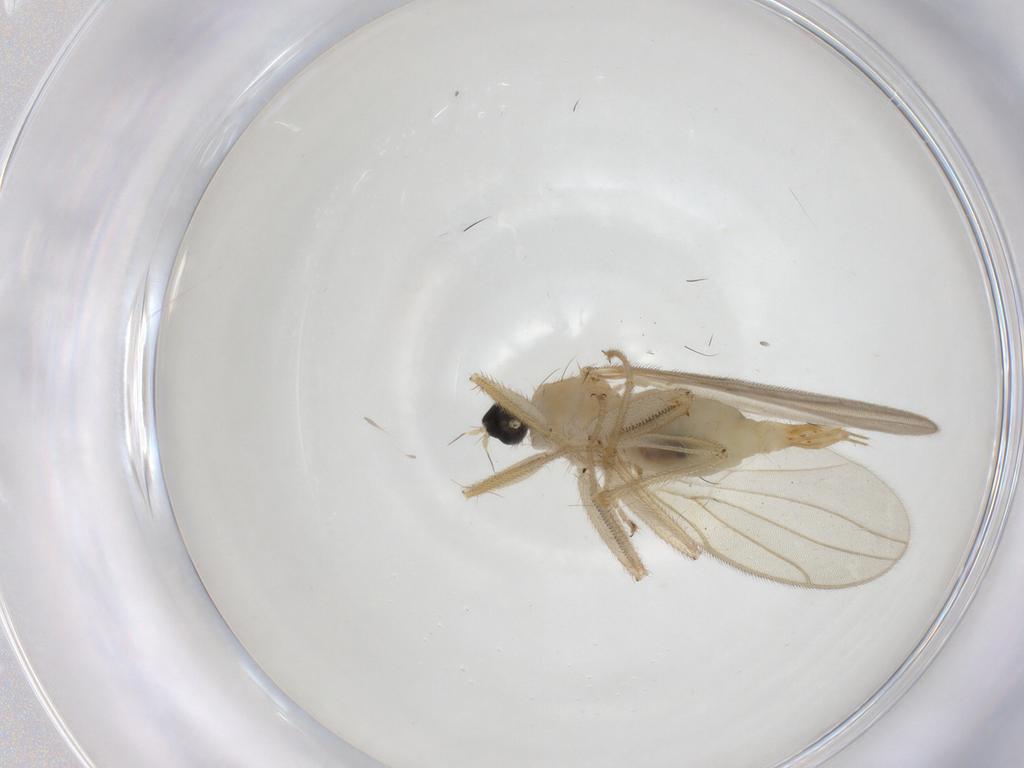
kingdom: Animalia
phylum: Arthropoda
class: Insecta
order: Diptera
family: Hybotidae
